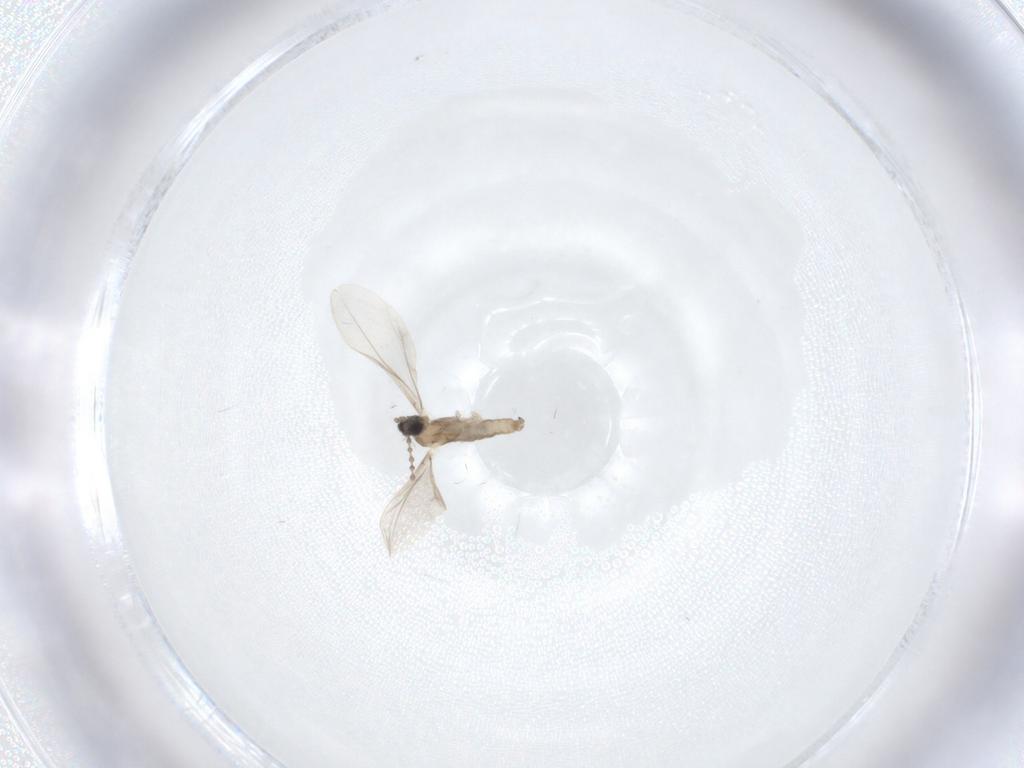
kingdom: Animalia
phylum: Arthropoda
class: Insecta
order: Diptera
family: Cecidomyiidae
